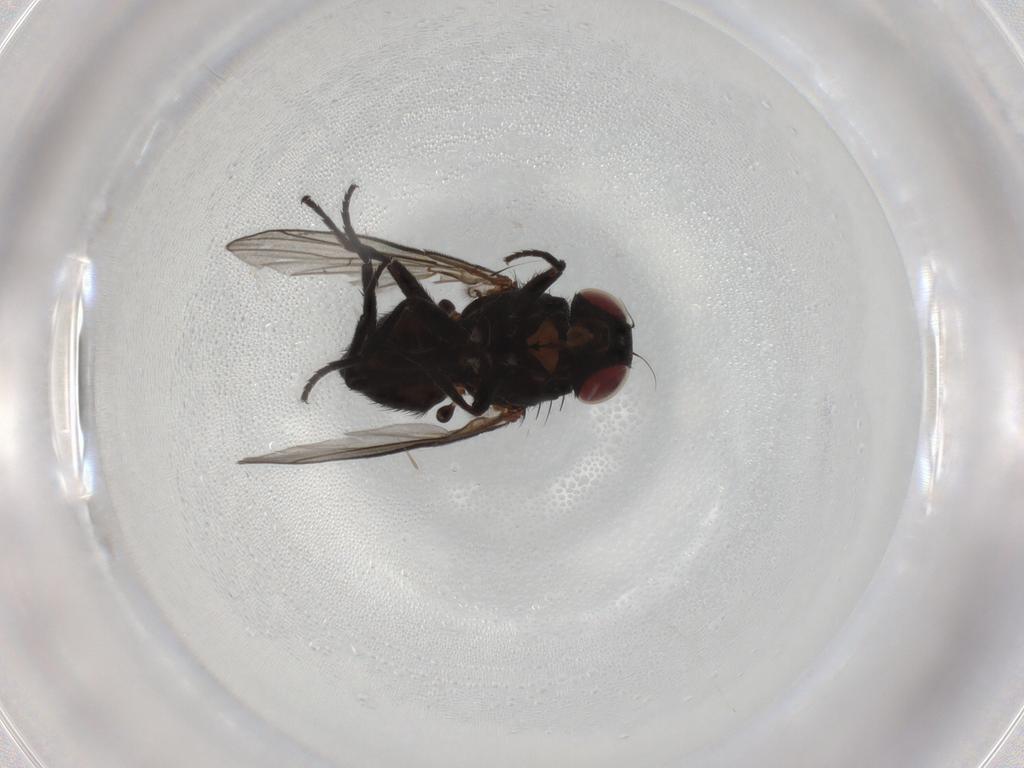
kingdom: Animalia
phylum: Arthropoda
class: Insecta
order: Diptera
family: Agromyzidae
